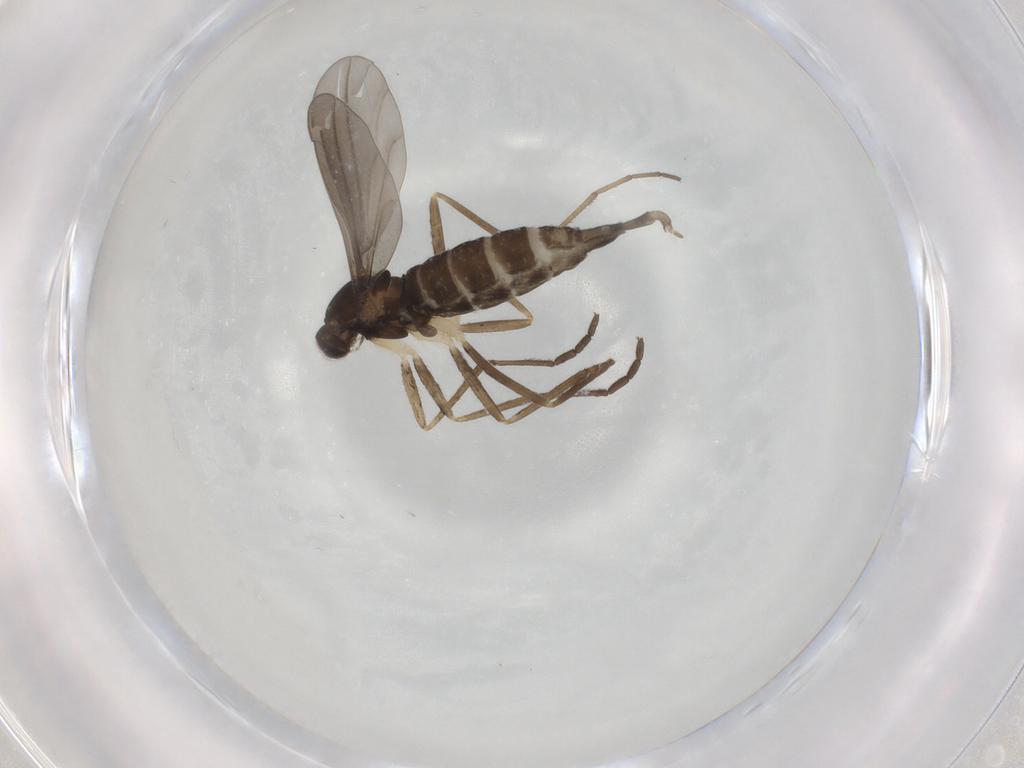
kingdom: Animalia
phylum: Arthropoda
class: Insecta
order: Diptera
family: Cecidomyiidae
